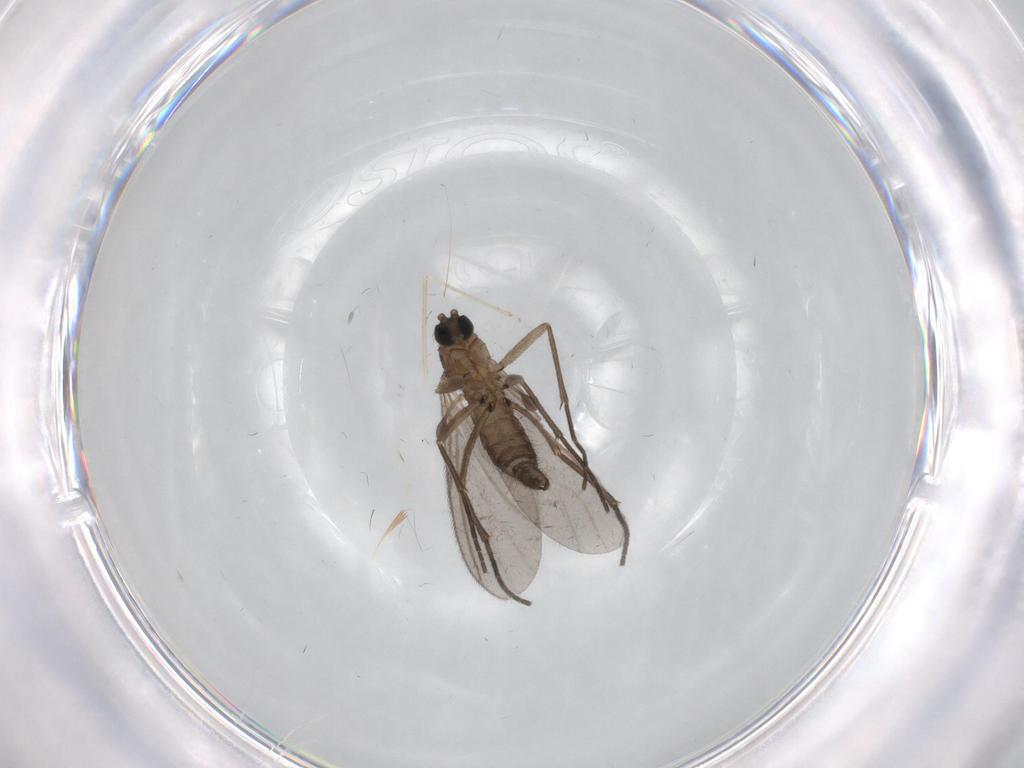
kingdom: Animalia
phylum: Arthropoda
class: Insecta
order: Diptera
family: Cecidomyiidae
